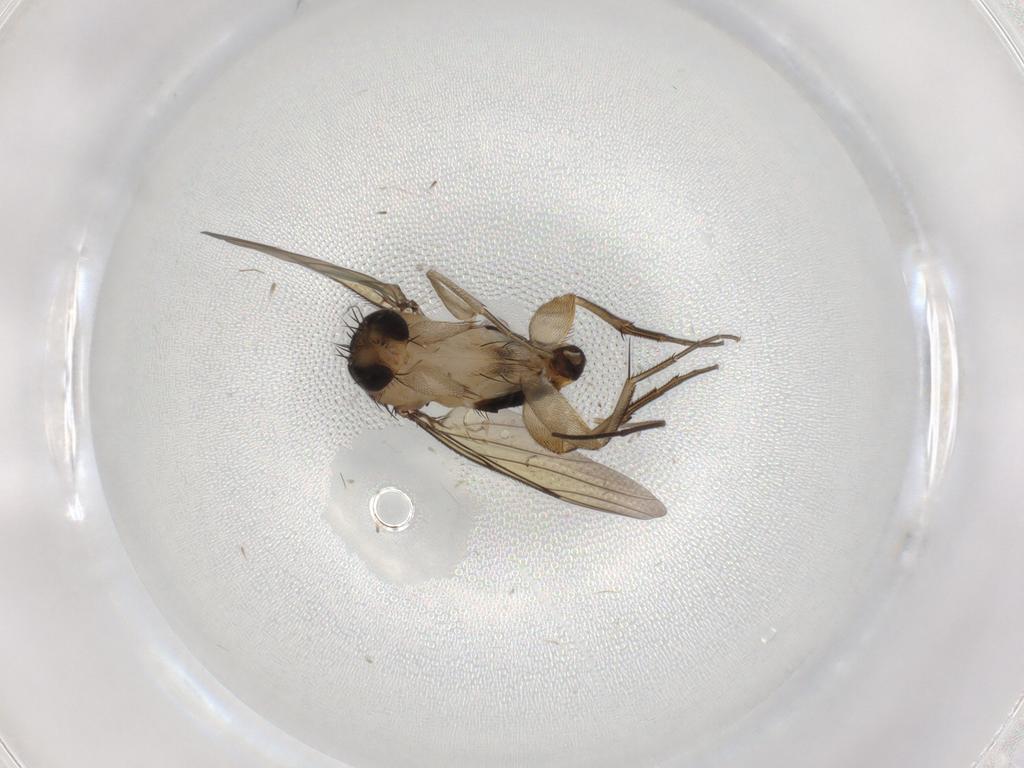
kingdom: Animalia
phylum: Arthropoda
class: Insecta
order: Diptera
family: Sciaridae
